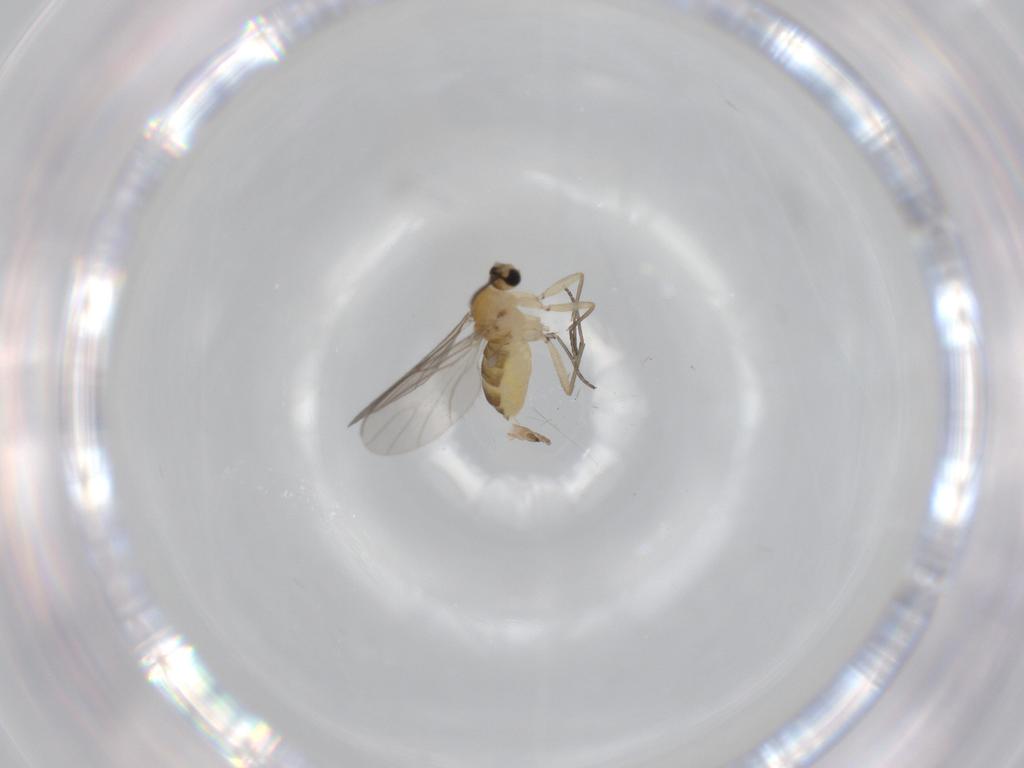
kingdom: Animalia
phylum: Arthropoda
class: Insecta
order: Diptera
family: Sciaridae
